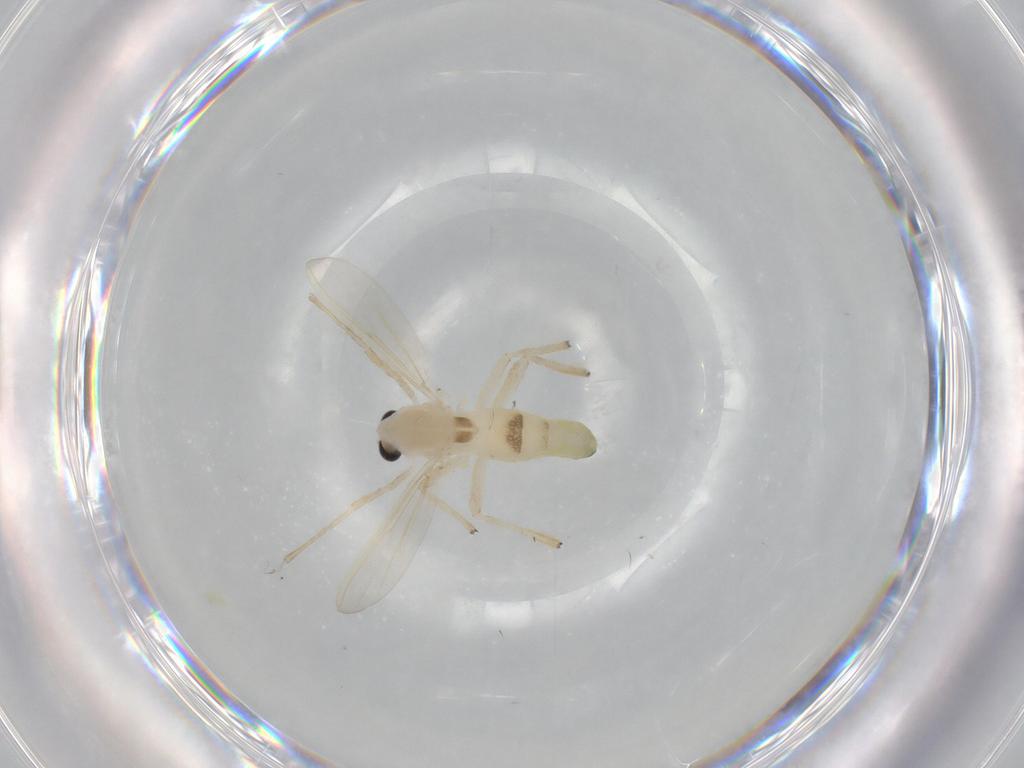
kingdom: Animalia
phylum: Arthropoda
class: Insecta
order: Diptera
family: Chironomidae
